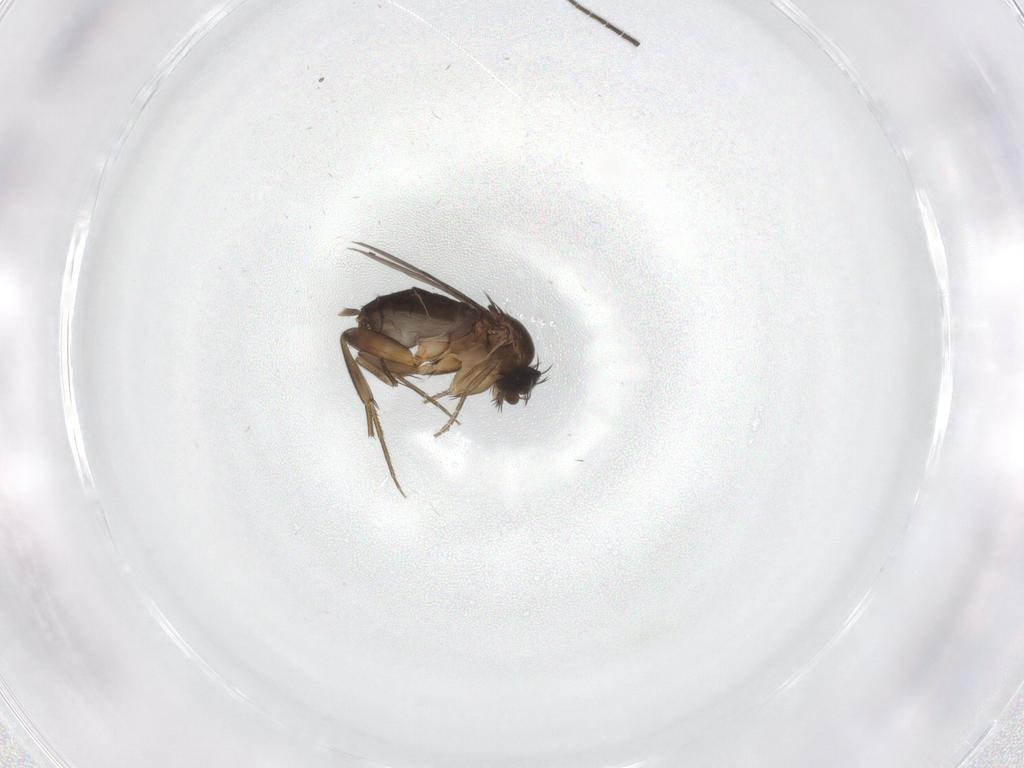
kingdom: Animalia
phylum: Arthropoda
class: Insecta
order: Diptera
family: Phoridae
